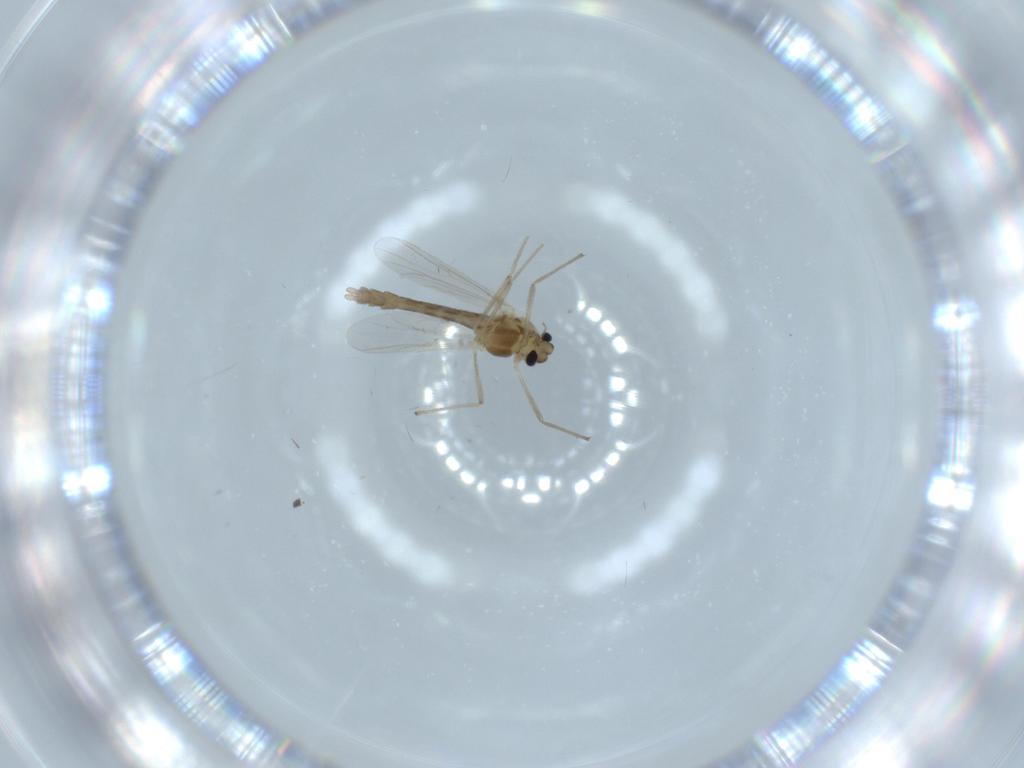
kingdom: Animalia
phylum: Arthropoda
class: Insecta
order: Diptera
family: Chironomidae
